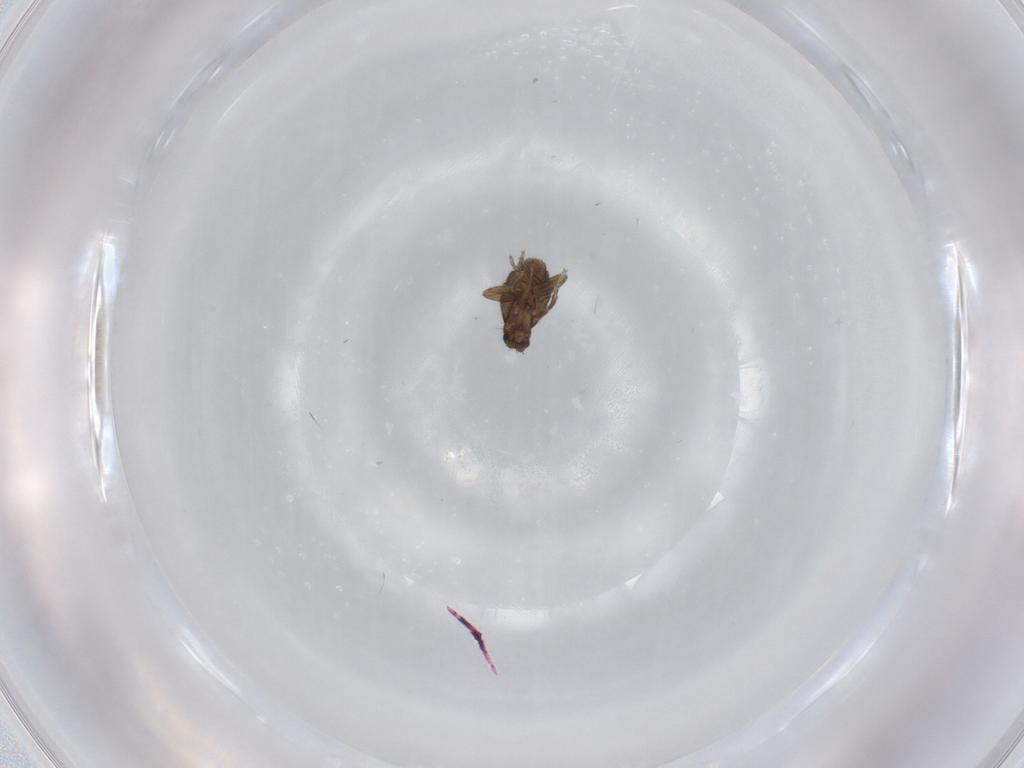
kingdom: Animalia
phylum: Arthropoda
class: Insecta
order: Diptera
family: Phoridae
